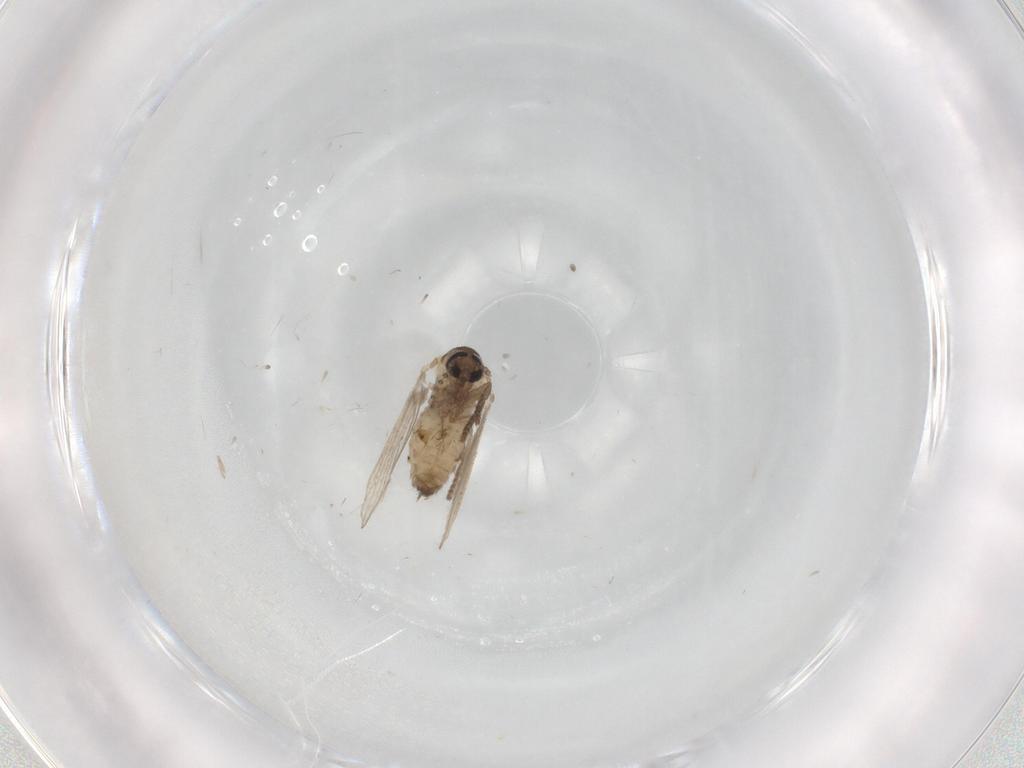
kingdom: Animalia
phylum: Arthropoda
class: Insecta
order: Diptera
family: Psychodidae
